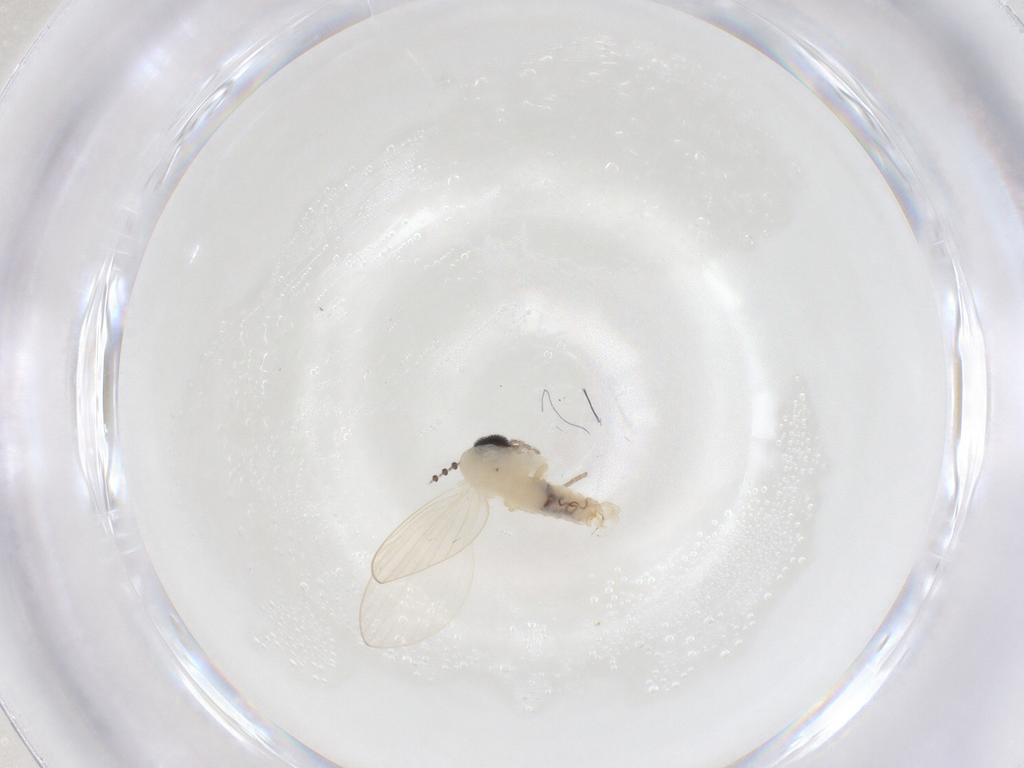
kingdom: Animalia
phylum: Arthropoda
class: Insecta
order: Diptera
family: Psychodidae
